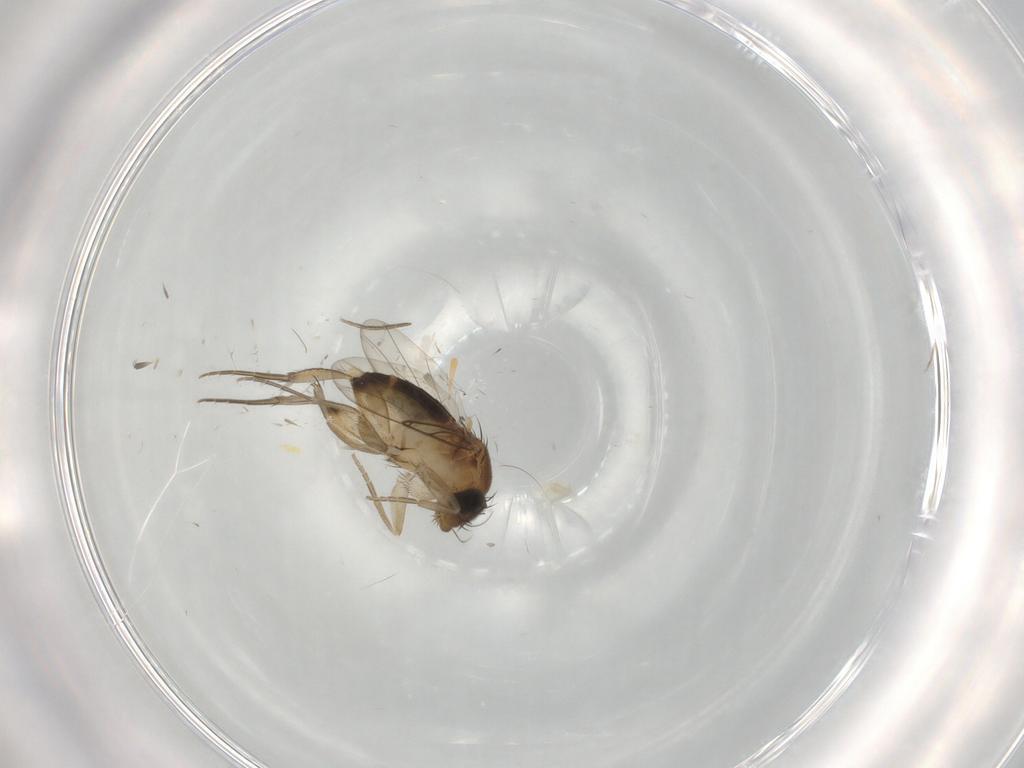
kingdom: Animalia
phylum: Arthropoda
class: Insecta
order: Diptera
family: Phoridae
